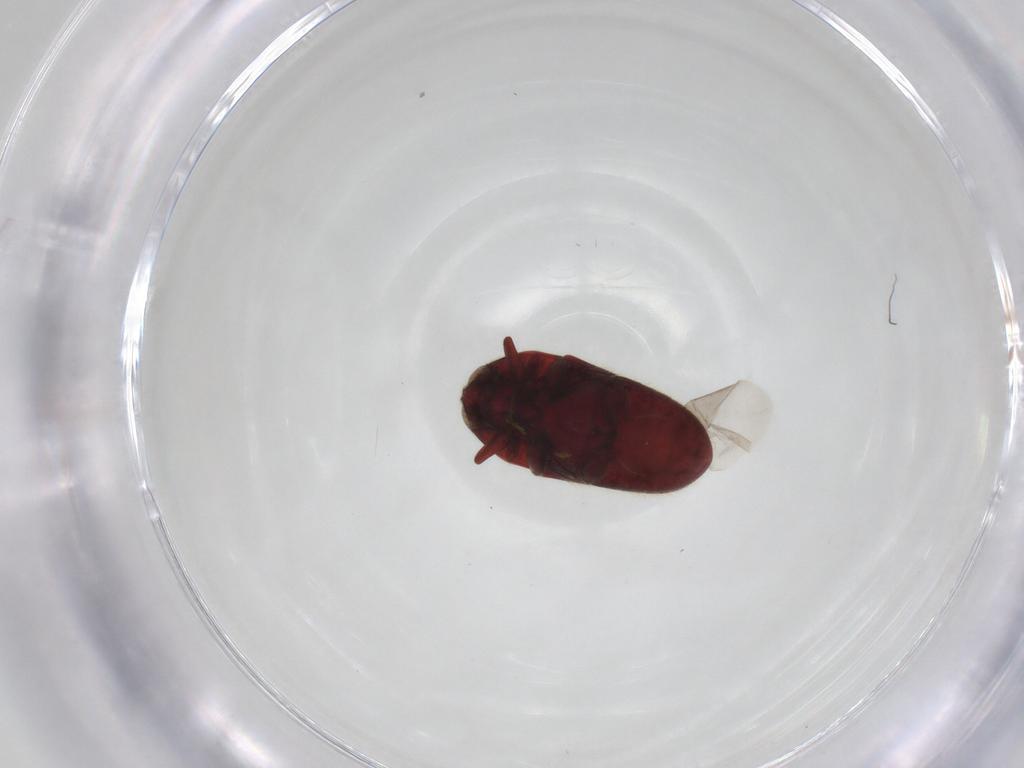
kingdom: Animalia
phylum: Arthropoda
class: Insecta
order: Coleoptera
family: Throscidae
